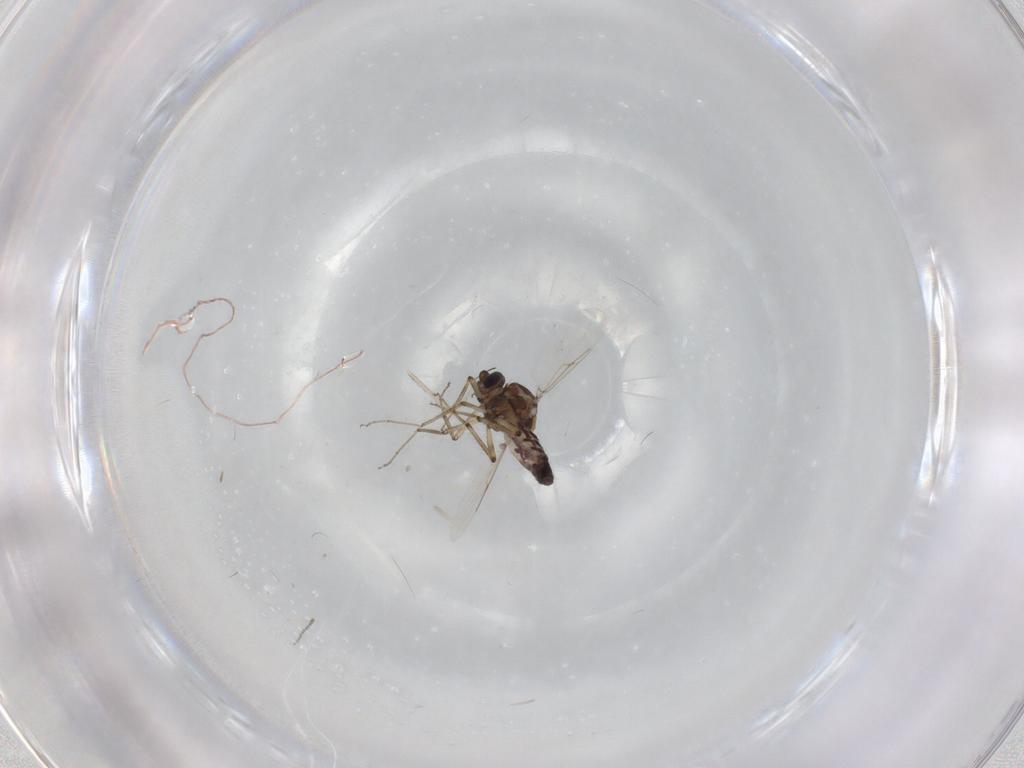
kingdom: Animalia
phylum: Arthropoda
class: Insecta
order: Diptera
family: Ceratopogonidae
